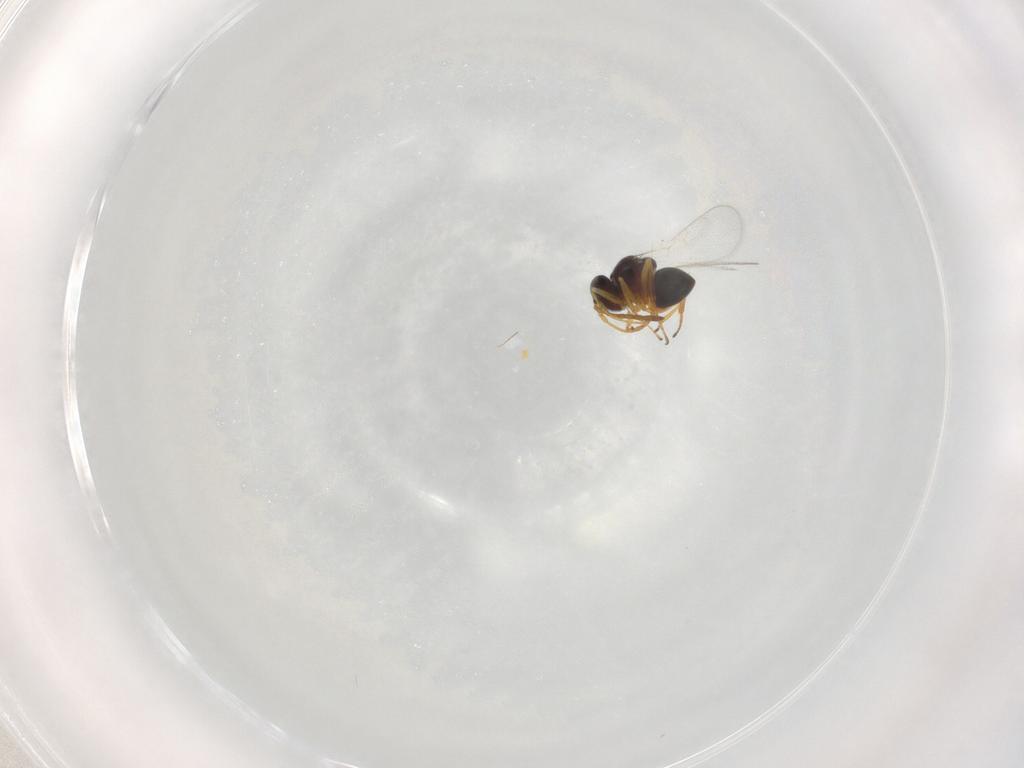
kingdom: Animalia
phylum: Arthropoda
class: Insecta
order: Hymenoptera
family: Figitidae
